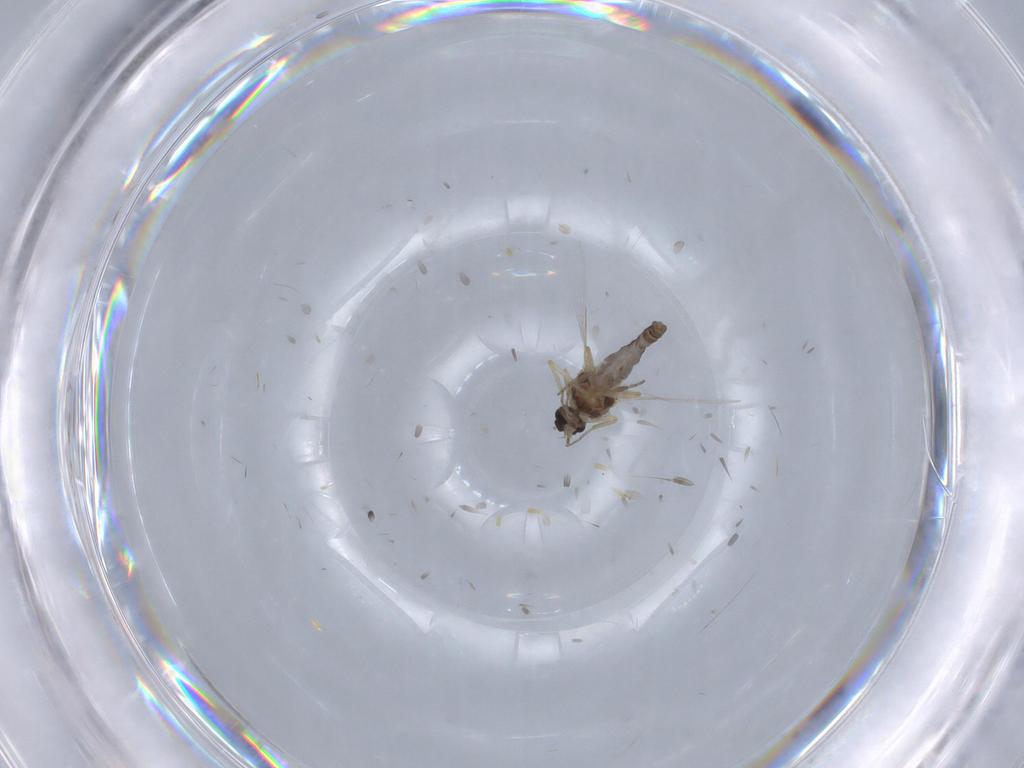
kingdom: Animalia
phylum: Arthropoda
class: Insecta
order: Diptera
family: Ceratopogonidae
